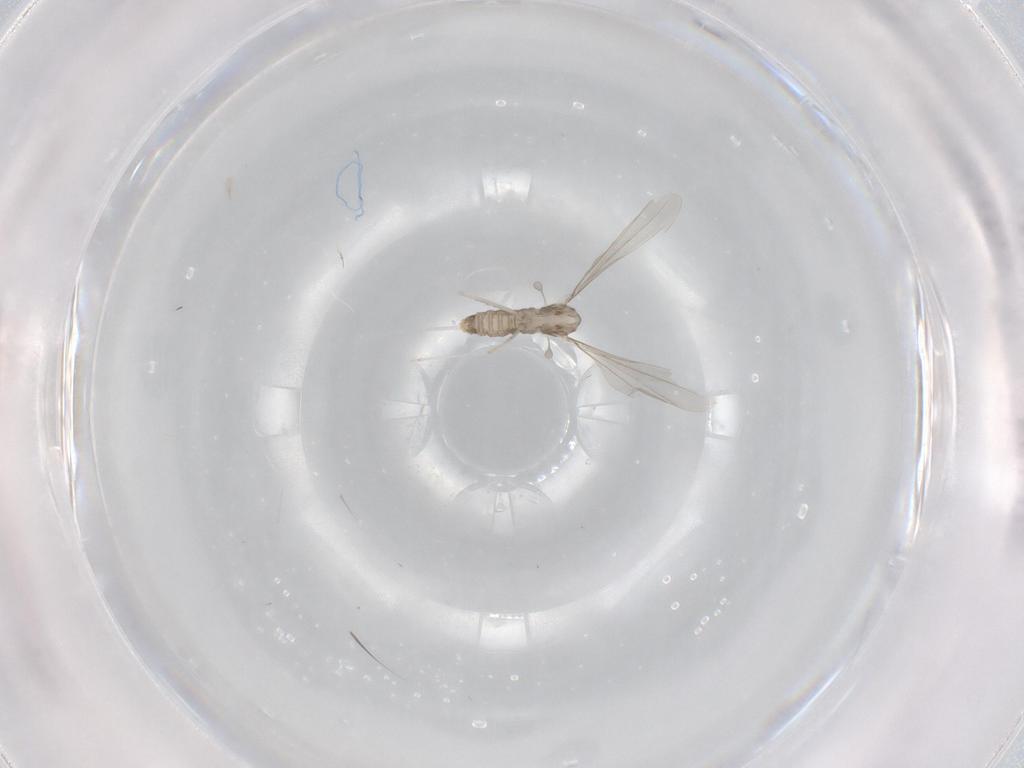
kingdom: Animalia
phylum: Arthropoda
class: Insecta
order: Diptera
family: Cecidomyiidae
